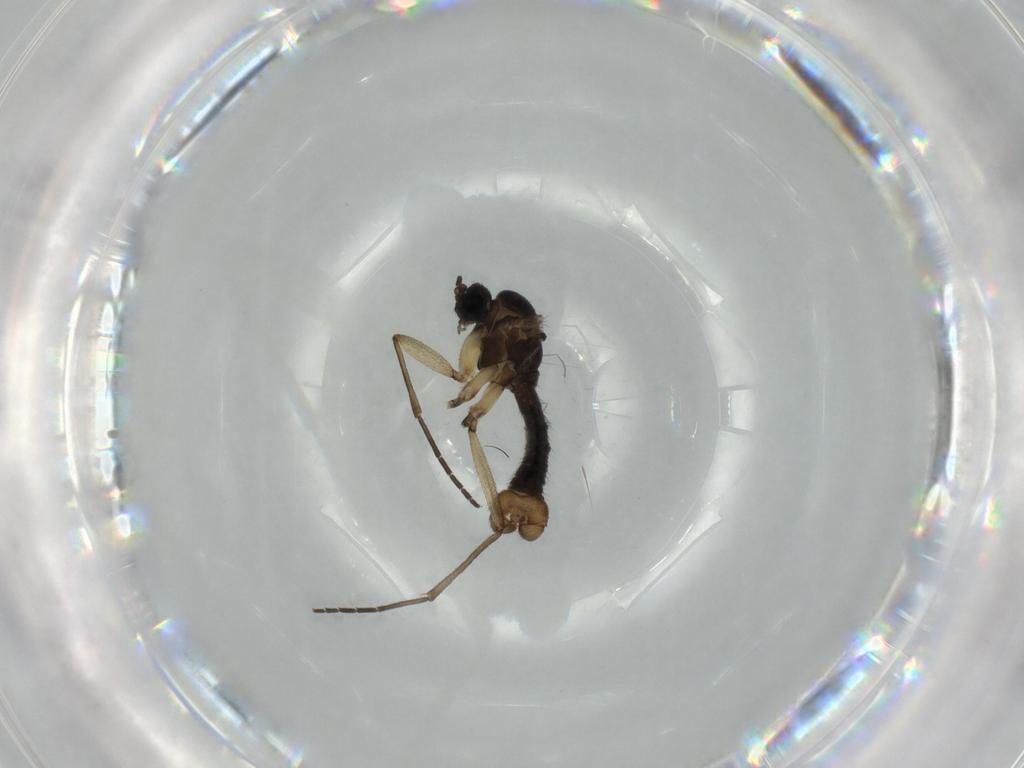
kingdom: Animalia
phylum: Arthropoda
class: Insecta
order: Diptera
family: Sciaridae
